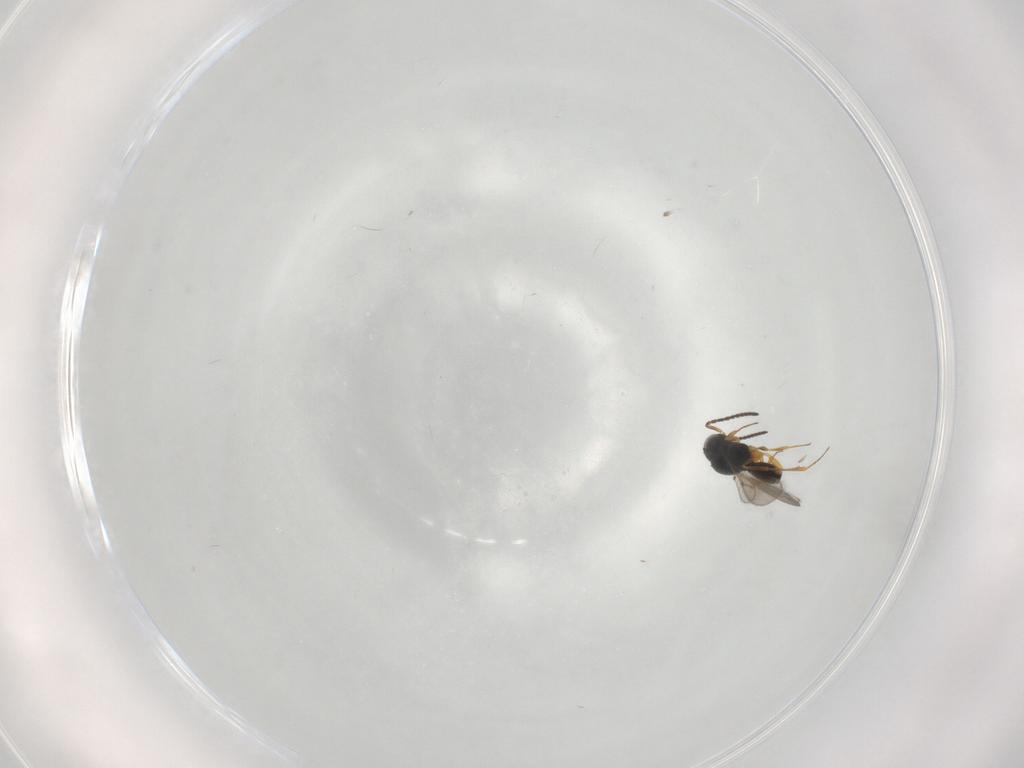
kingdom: Animalia
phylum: Arthropoda
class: Insecta
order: Hymenoptera
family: Scelionidae
